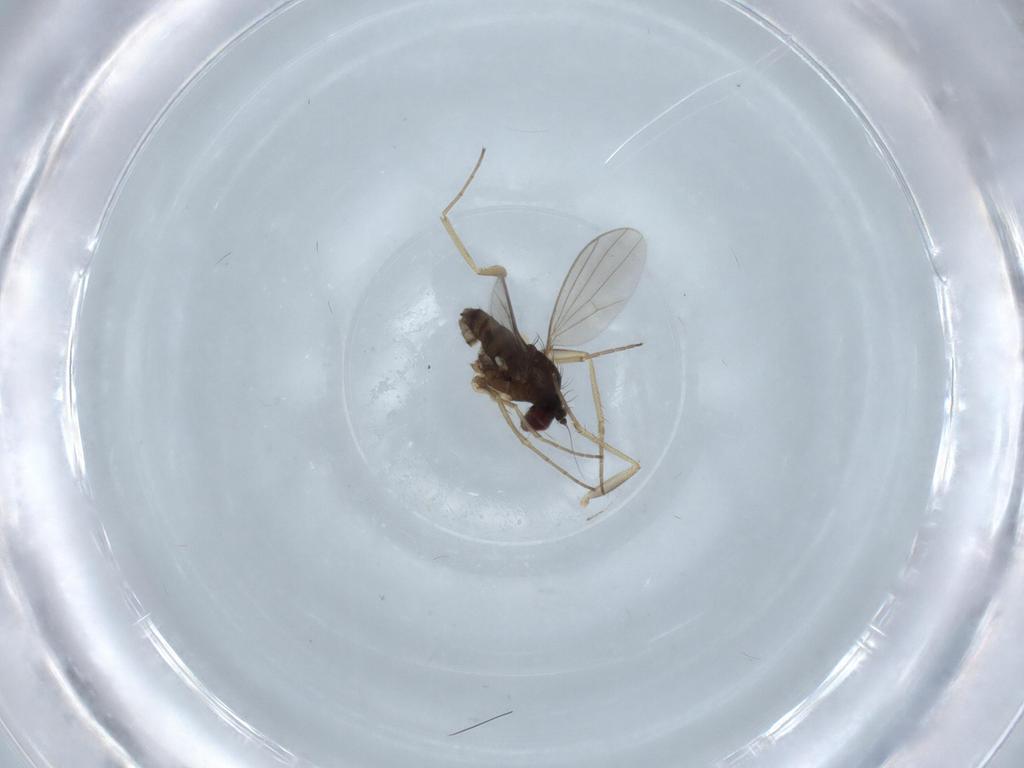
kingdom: Animalia
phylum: Arthropoda
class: Insecta
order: Diptera
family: Dolichopodidae
